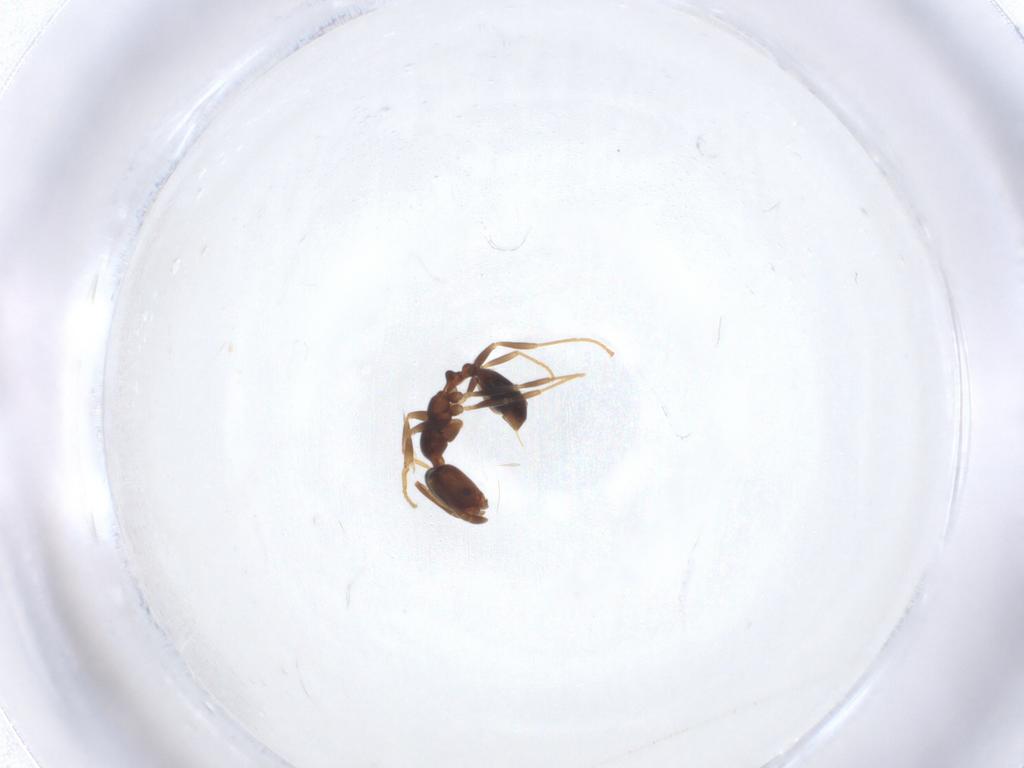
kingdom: Animalia
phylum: Arthropoda
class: Insecta
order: Hymenoptera
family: Formicidae
